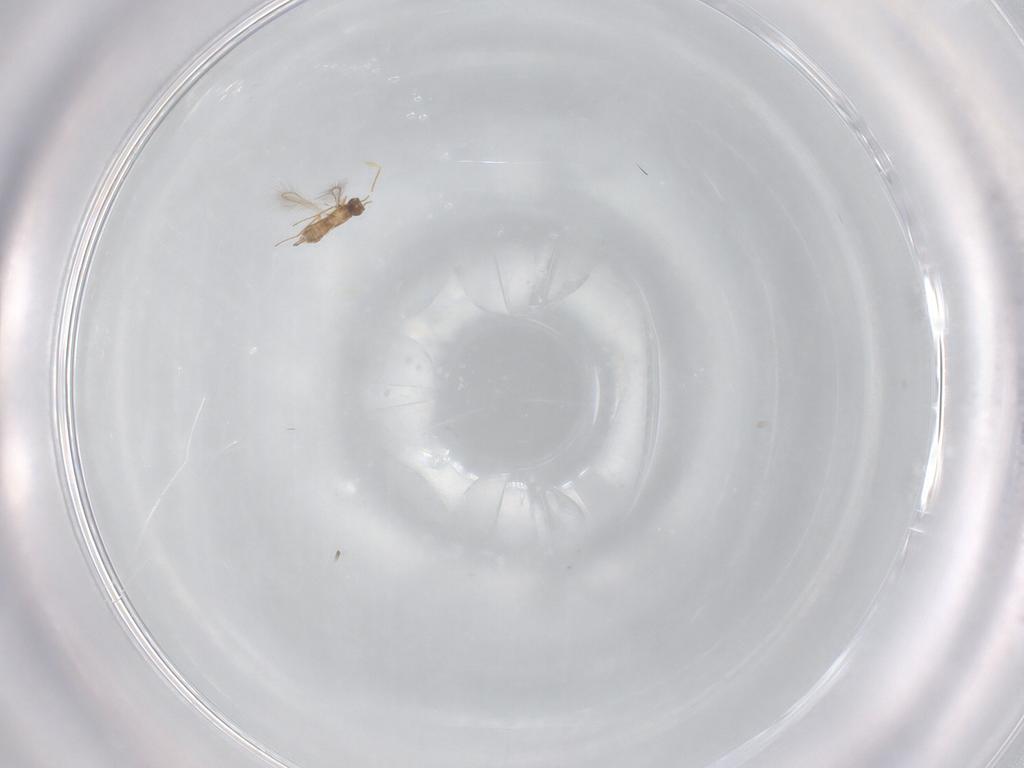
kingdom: Animalia
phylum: Arthropoda
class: Insecta
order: Hymenoptera
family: Mymaridae
